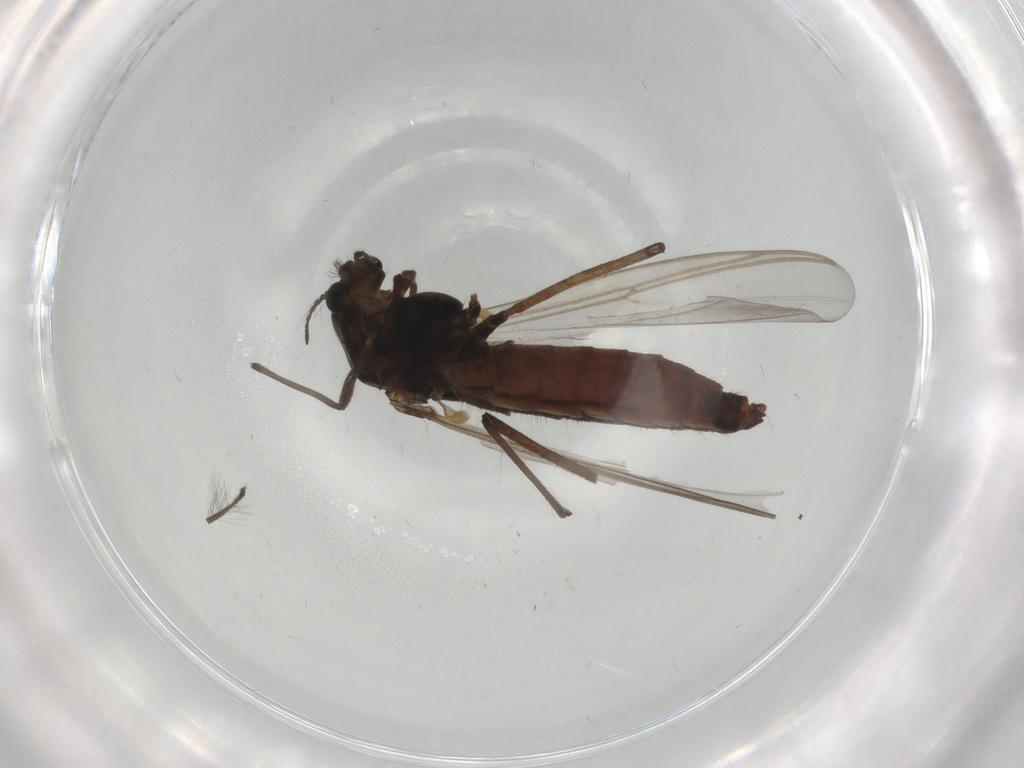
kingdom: Animalia
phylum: Arthropoda
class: Insecta
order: Diptera
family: Chironomidae
